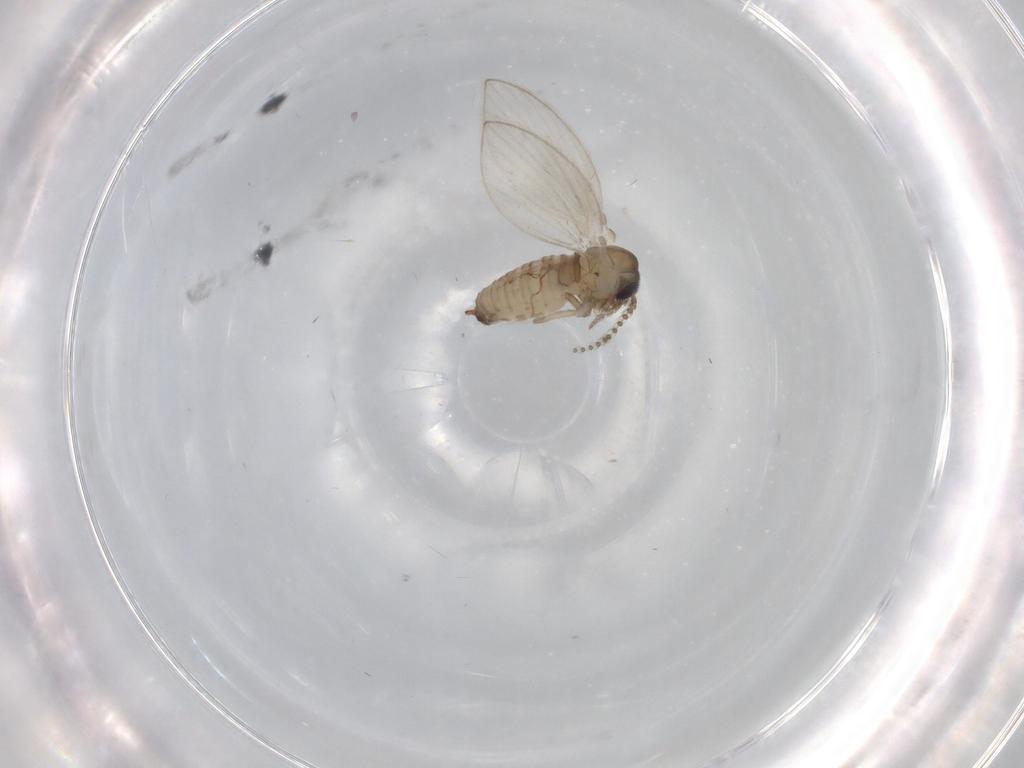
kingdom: Animalia
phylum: Arthropoda
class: Insecta
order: Diptera
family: Psychodidae
